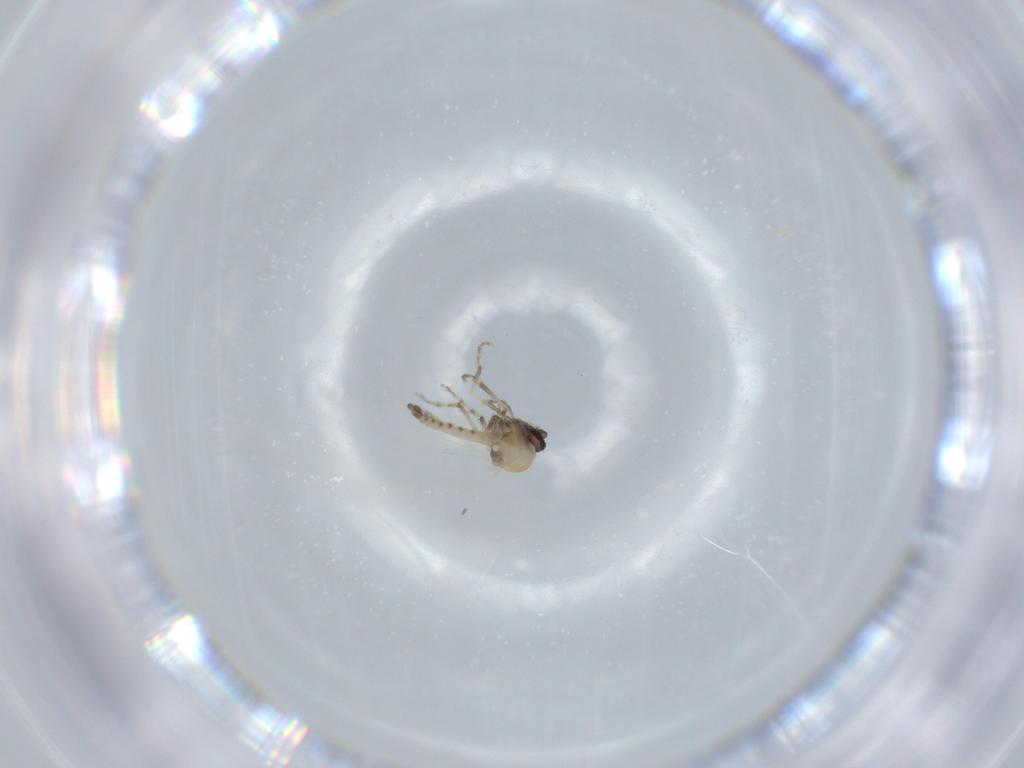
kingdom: Animalia
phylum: Arthropoda
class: Insecta
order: Diptera
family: Ceratopogonidae
